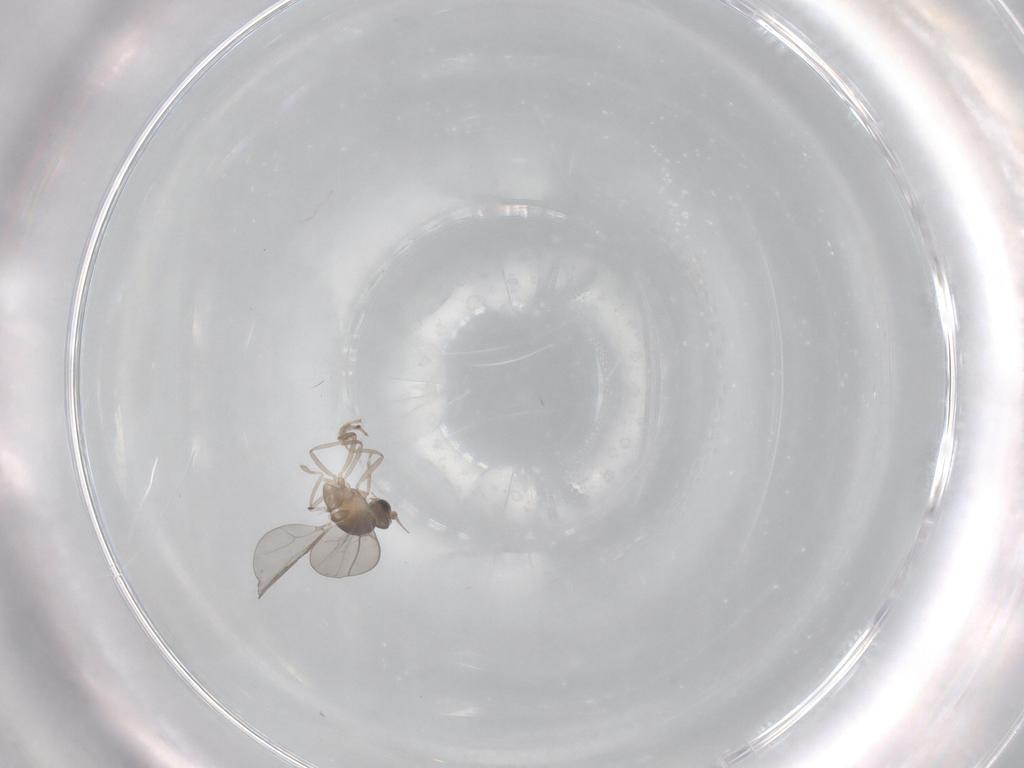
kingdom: Animalia
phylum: Arthropoda
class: Insecta
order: Diptera
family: Cecidomyiidae
